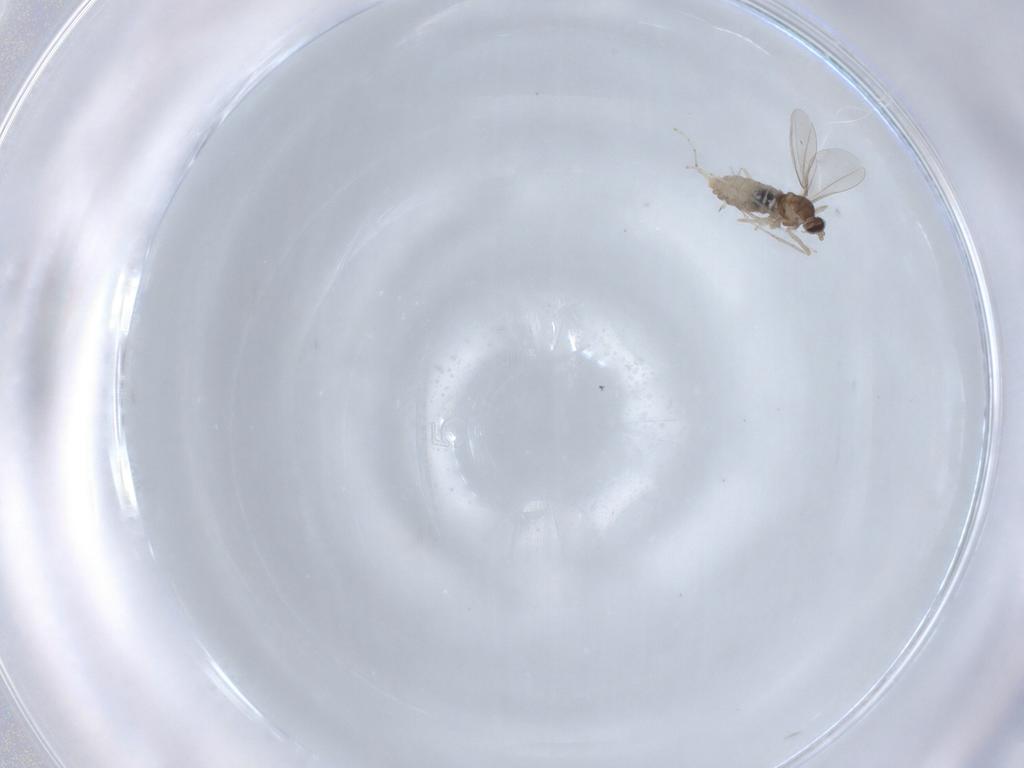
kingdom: Animalia
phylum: Arthropoda
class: Insecta
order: Diptera
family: Cecidomyiidae
